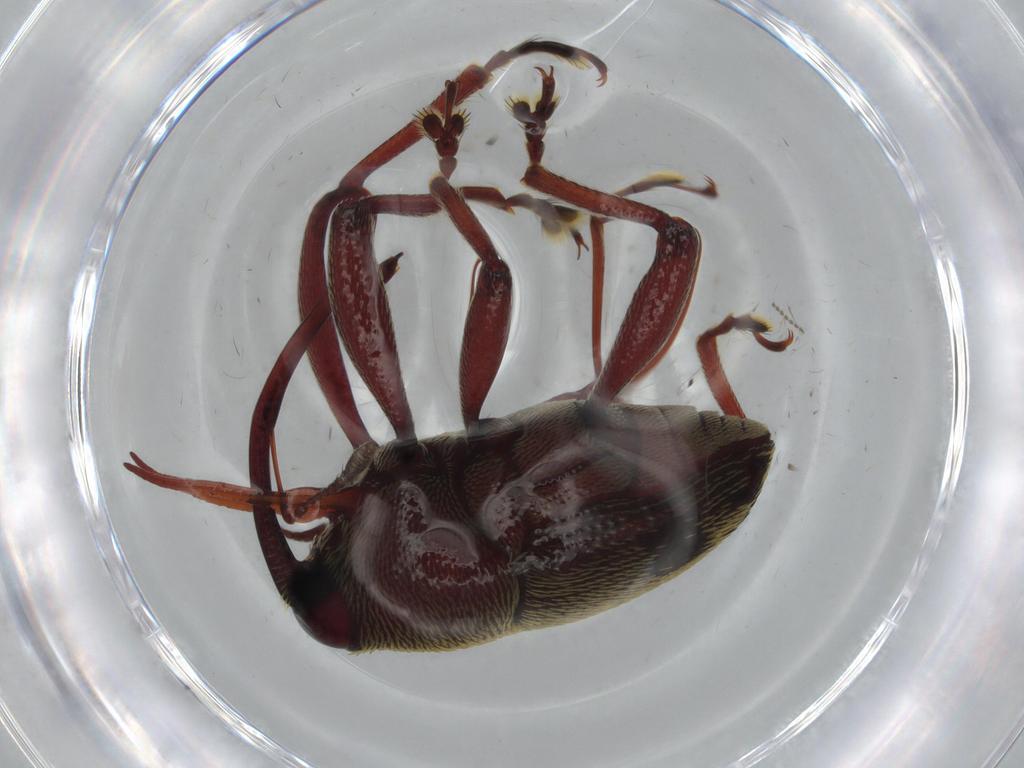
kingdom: Animalia
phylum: Arthropoda
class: Insecta
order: Coleoptera
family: Curculionidae
